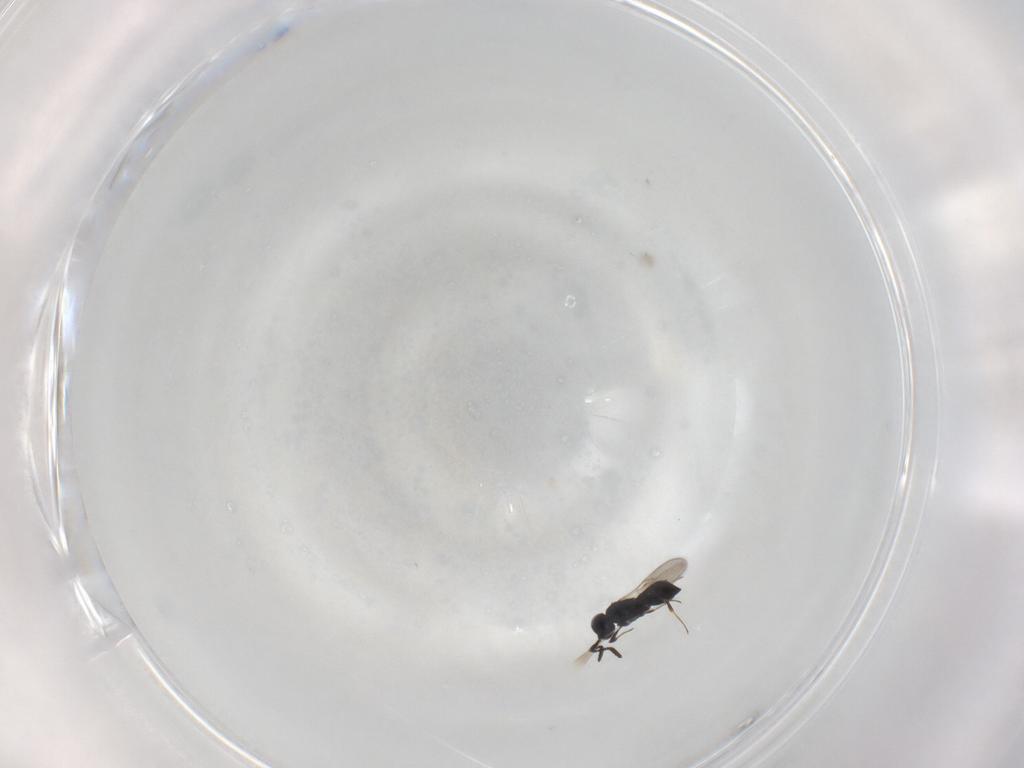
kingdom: Animalia
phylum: Arthropoda
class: Insecta
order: Hymenoptera
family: Scelionidae
